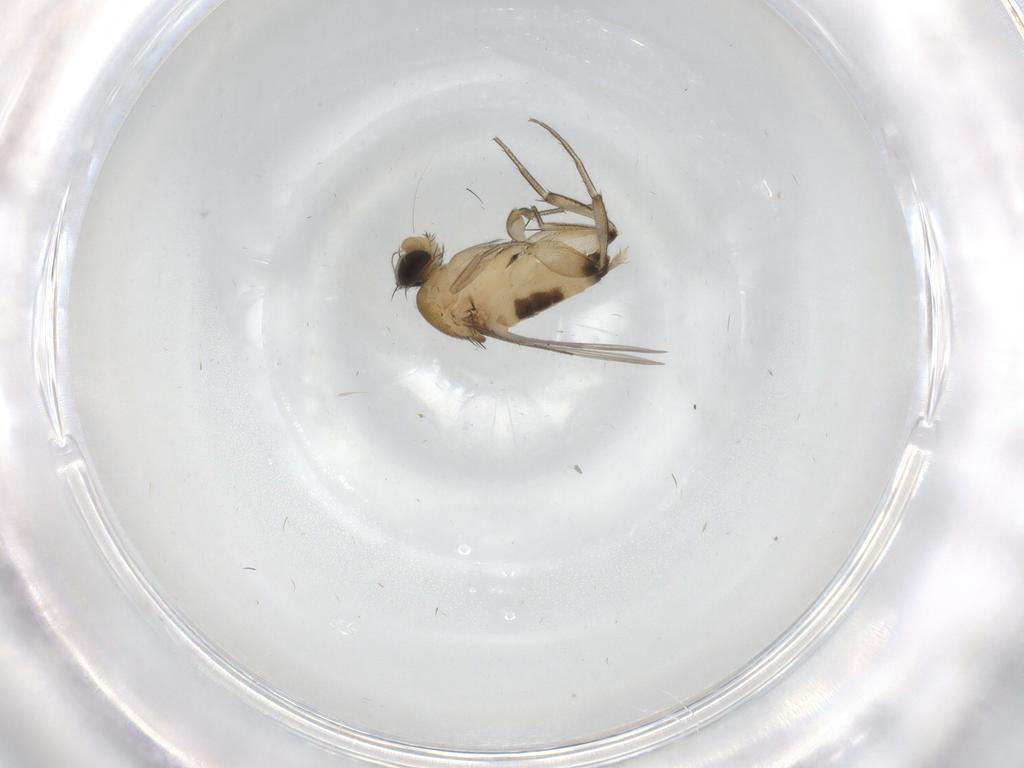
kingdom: Animalia
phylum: Arthropoda
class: Insecta
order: Diptera
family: Phoridae
